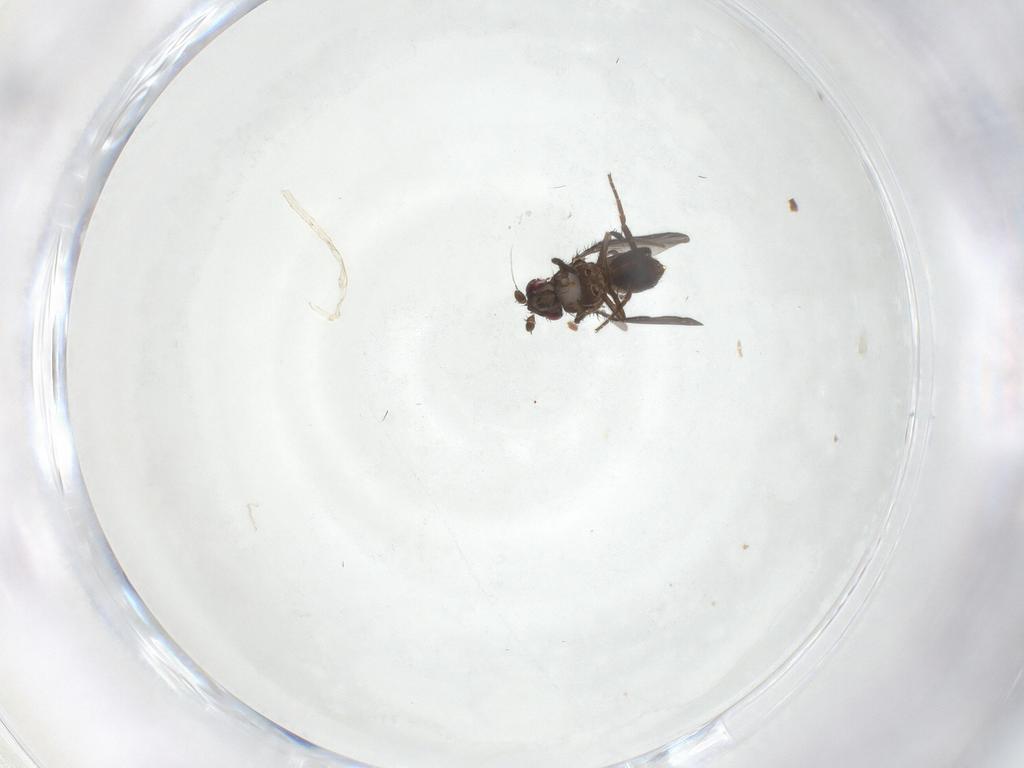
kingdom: Animalia
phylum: Arthropoda
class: Insecta
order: Diptera
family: Sphaeroceridae
